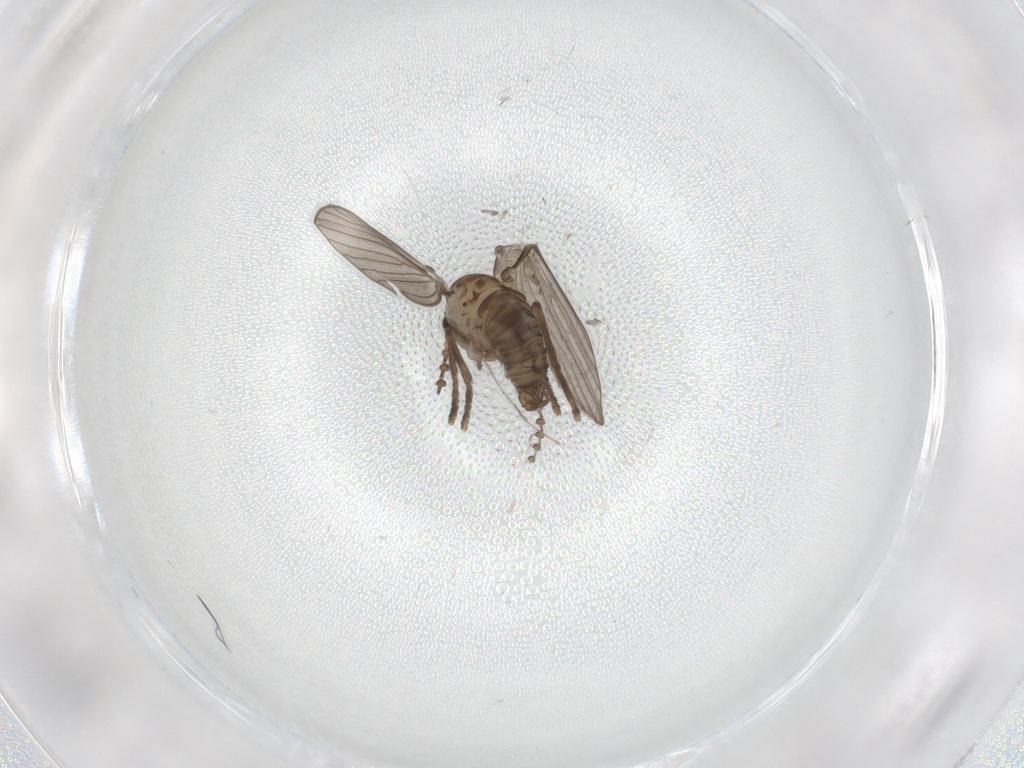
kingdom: Animalia
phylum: Arthropoda
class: Insecta
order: Diptera
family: Psychodidae
